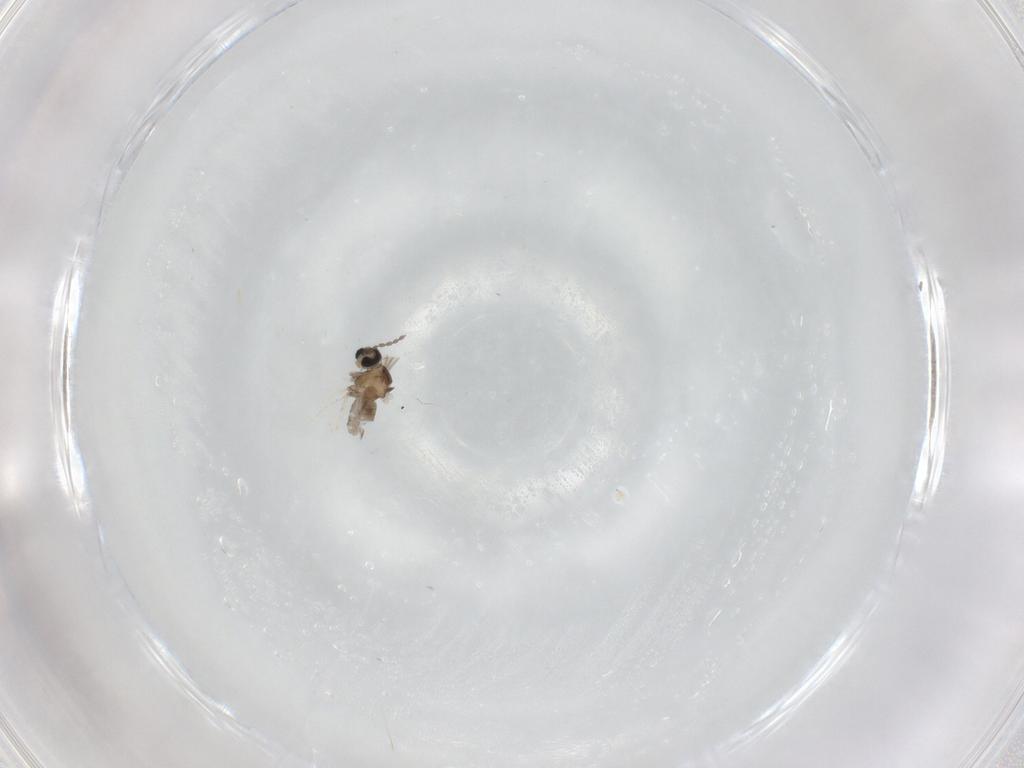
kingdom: Animalia
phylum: Arthropoda
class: Insecta
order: Diptera
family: Cecidomyiidae
